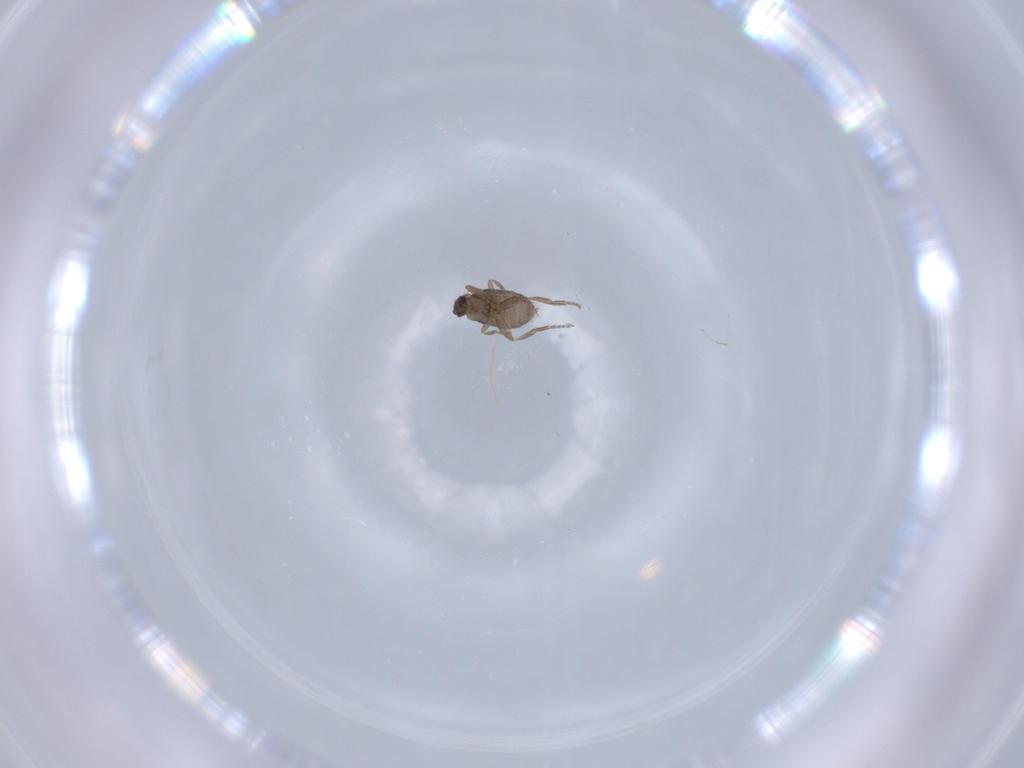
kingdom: Animalia
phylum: Arthropoda
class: Insecta
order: Diptera
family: Phoridae
